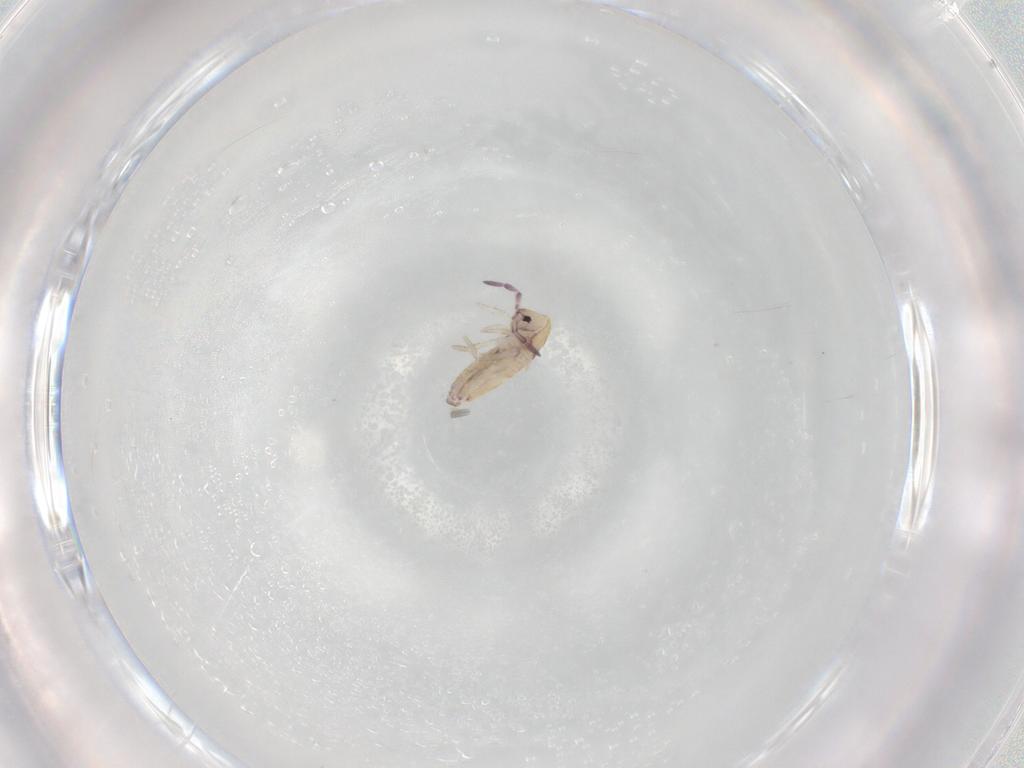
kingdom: Animalia
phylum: Arthropoda
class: Collembola
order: Entomobryomorpha
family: Entomobryidae
